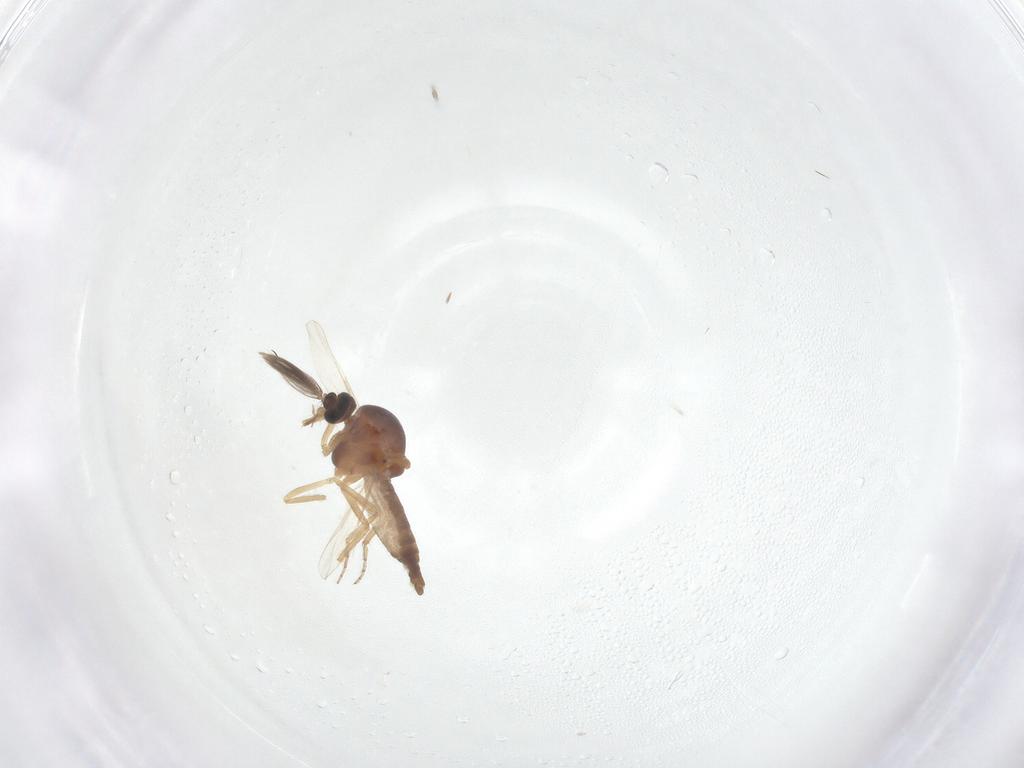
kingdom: Animalia
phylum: Arthropoda
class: Insecta
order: Diptera
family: Ceratopogonidae
